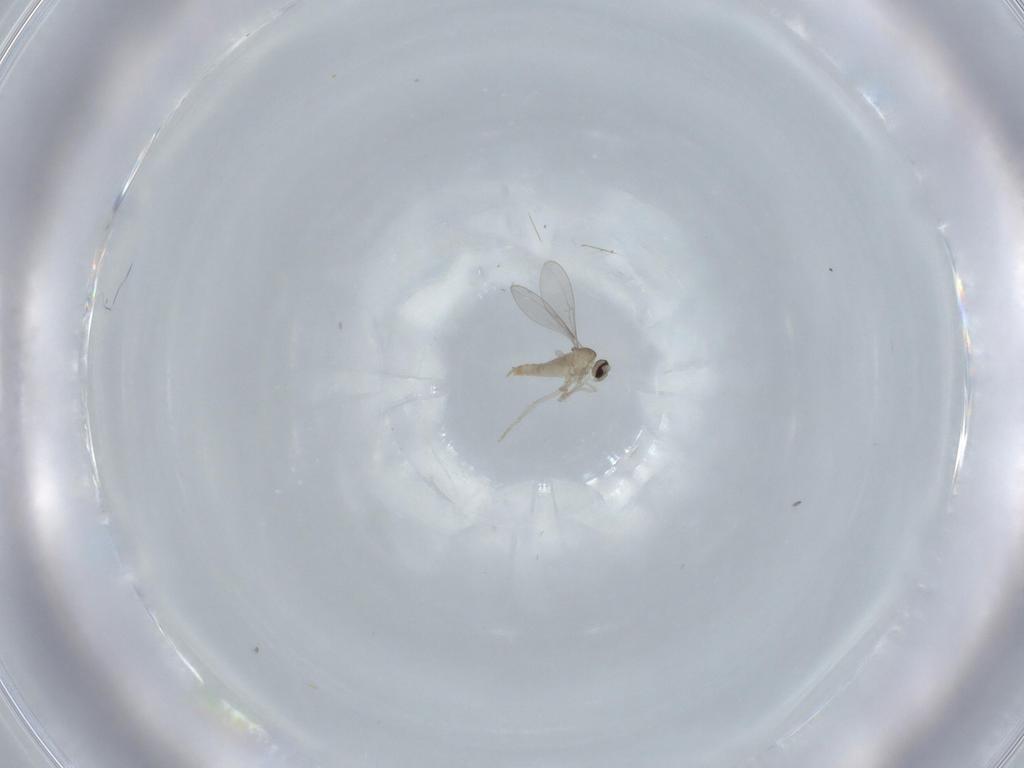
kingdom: Animalia
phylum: Arthropoda
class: Insecta
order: Diptera
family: Cecidomyiidae
